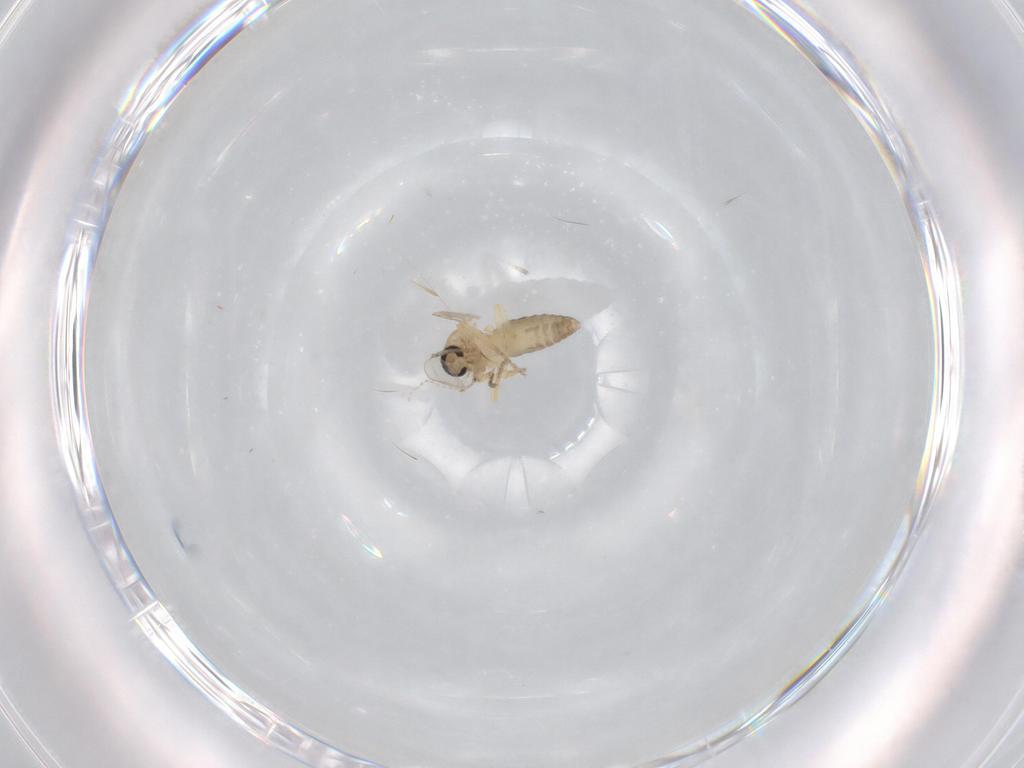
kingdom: Animalia
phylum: Arthropoda
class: Insecta
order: Diptera
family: Ceratopogonidae
